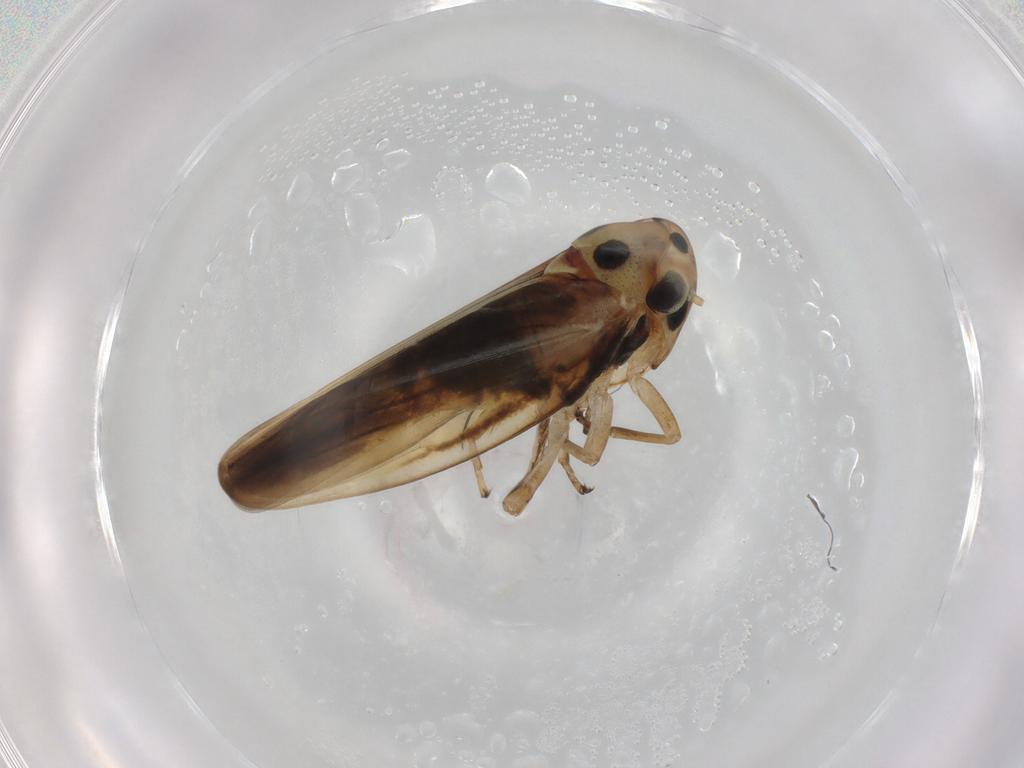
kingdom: Animalia
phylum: Arthropoda
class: Insecta
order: Hemiptera
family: Cicadellidae
